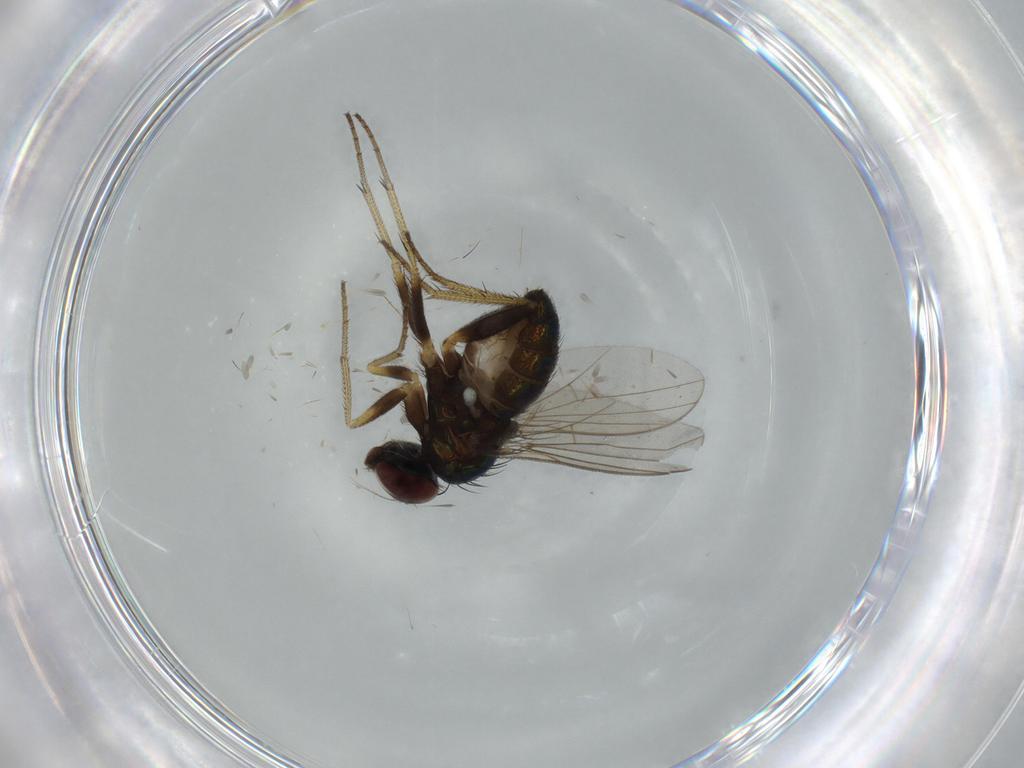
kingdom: Animalia
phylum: Arthropoda
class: Insecta
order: Diptera
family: Dolichopodidae
